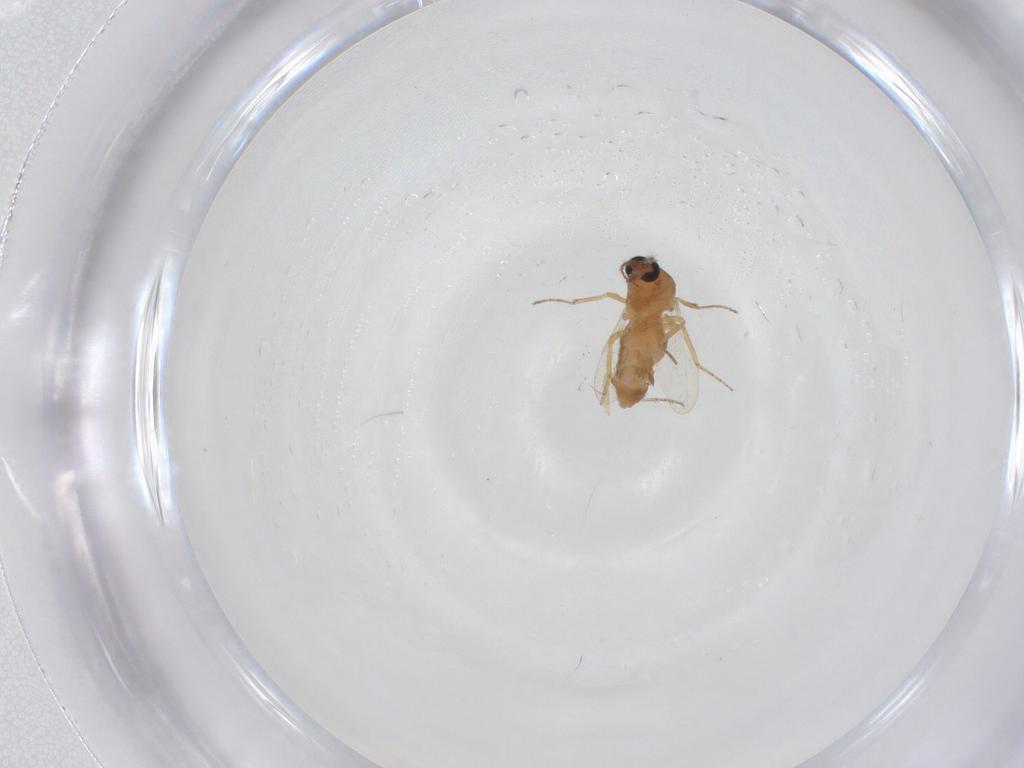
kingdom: Animalia
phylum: Arthropoda
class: Insecta
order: Diptera
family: Ceratopogonidae
